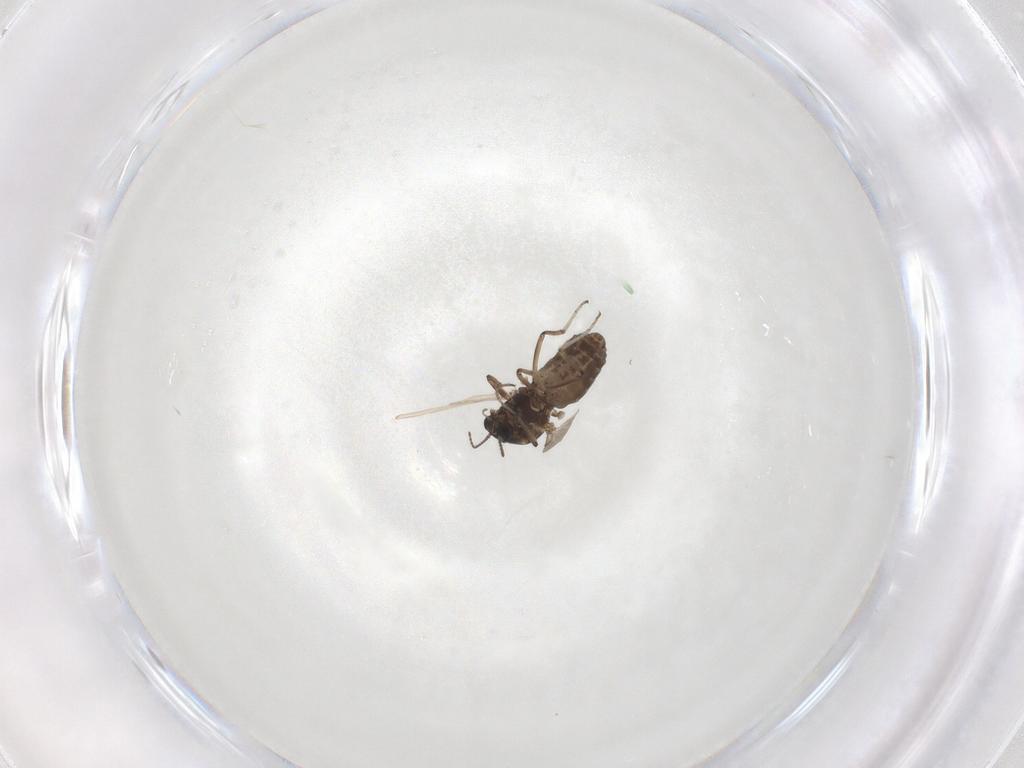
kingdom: Animalia
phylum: Arthropoda
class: Insecta
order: Diptera
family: Ceratopogonidae
